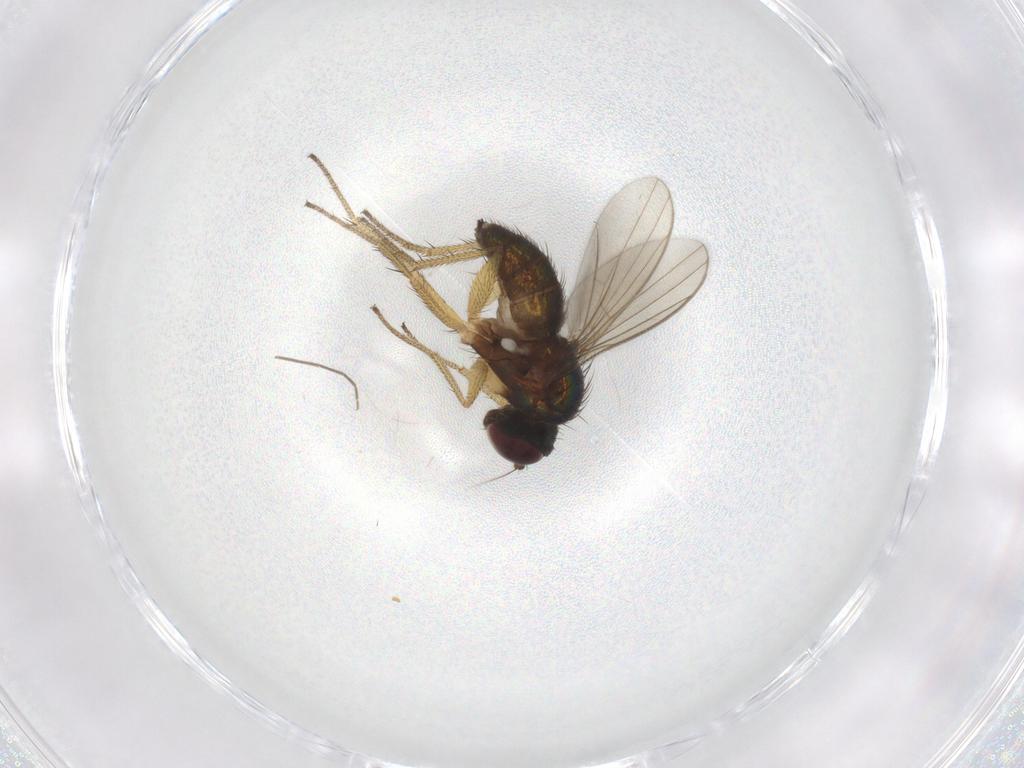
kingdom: Animalia
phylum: Arthropoda
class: Insecta
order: Diptera
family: Dolichopodidae
